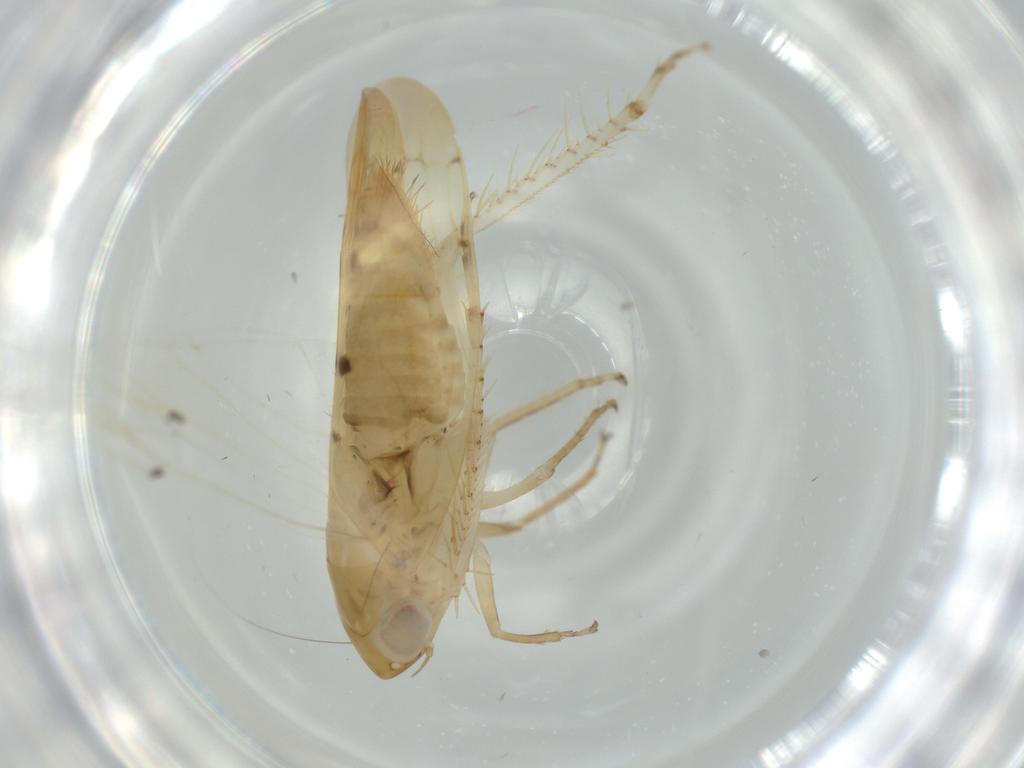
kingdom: Animalia
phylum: Arthropoda
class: Insecta
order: Hemiptera
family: Cicadellidae
